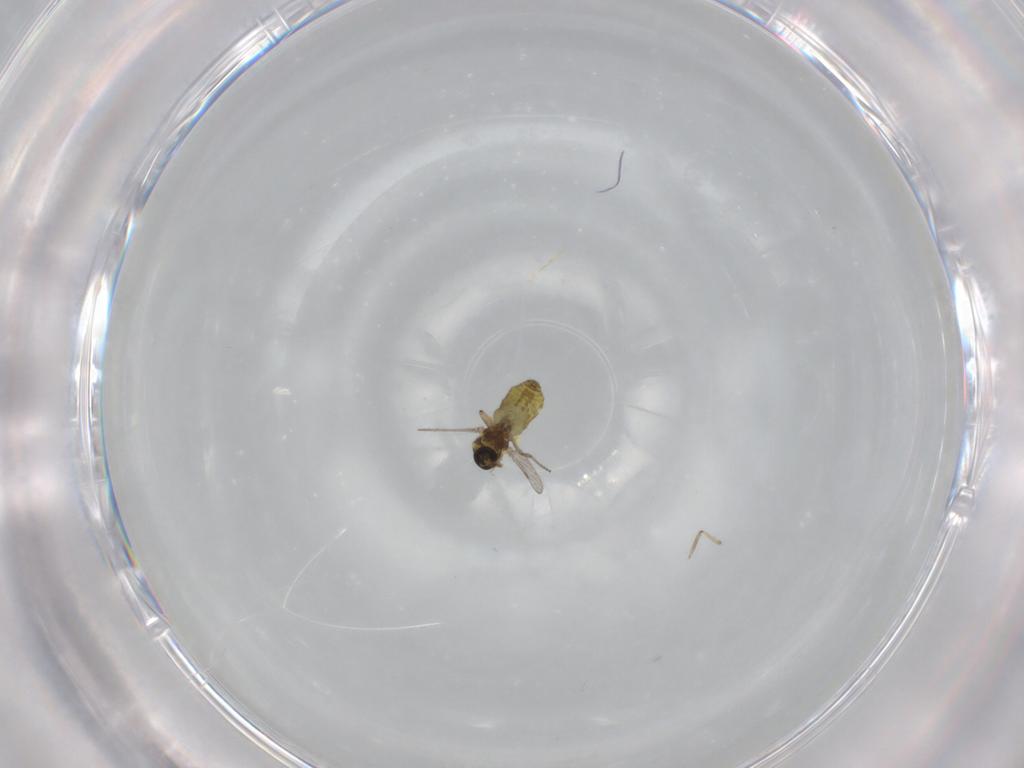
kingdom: Animalia
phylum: Arthropoda
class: Insecta
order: Diptera
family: Ceratopogonidae
